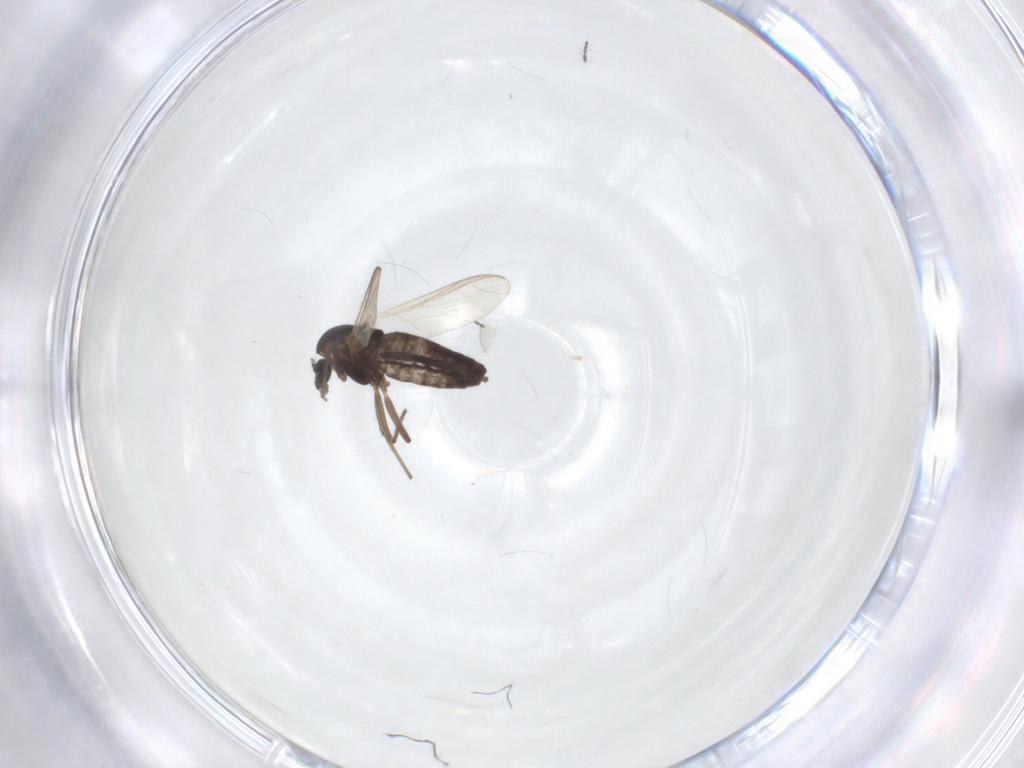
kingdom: Animalia
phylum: Arthropoda
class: Insecta
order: Diptera
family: Chironomidae
